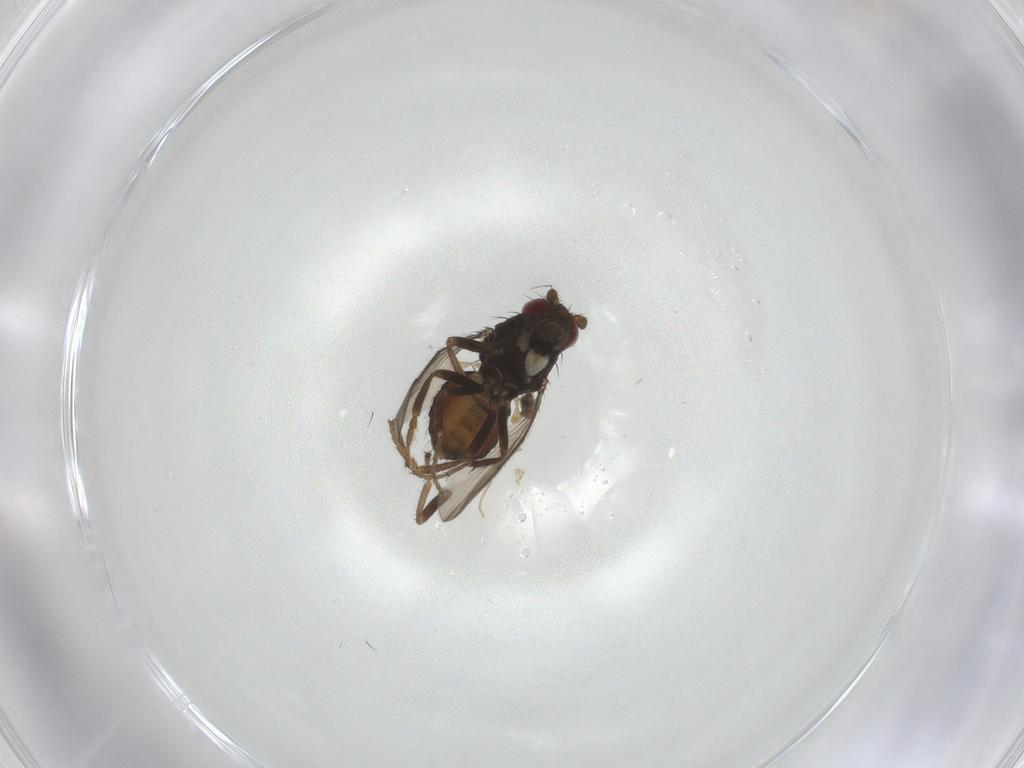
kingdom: Animalia
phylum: Arthropoda
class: Insecta
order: Diptera
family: Sphaeroceridae
